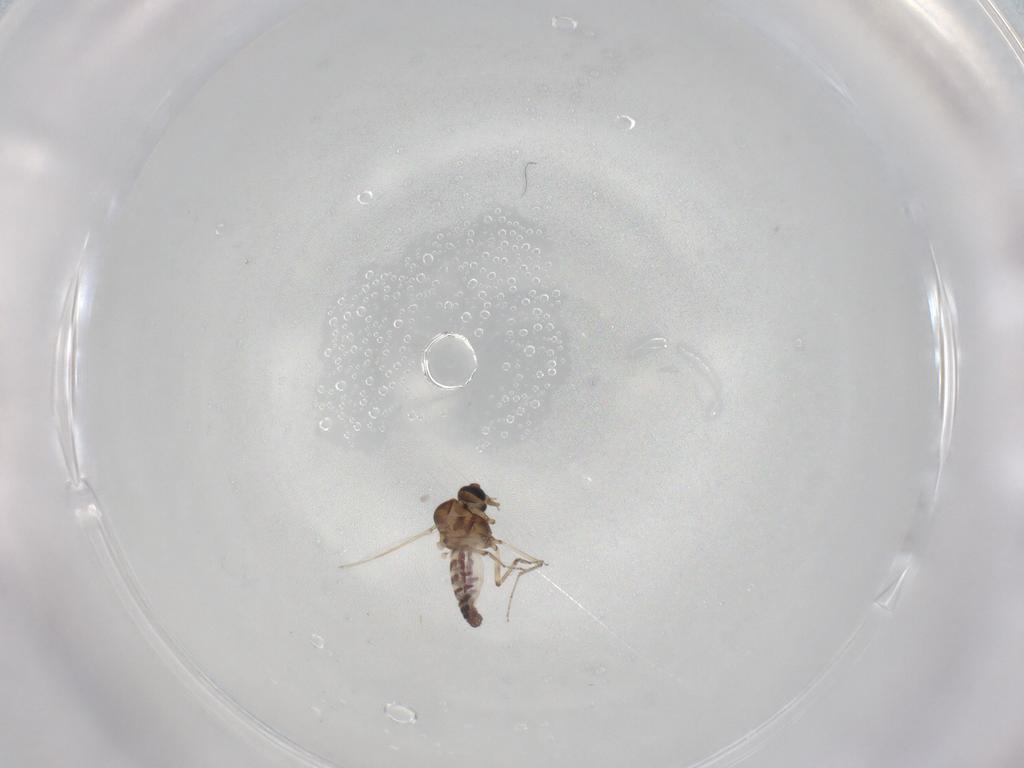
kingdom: Animalia
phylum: Arthropoda
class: Insecta
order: Diptera
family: Ceratopogonidae
